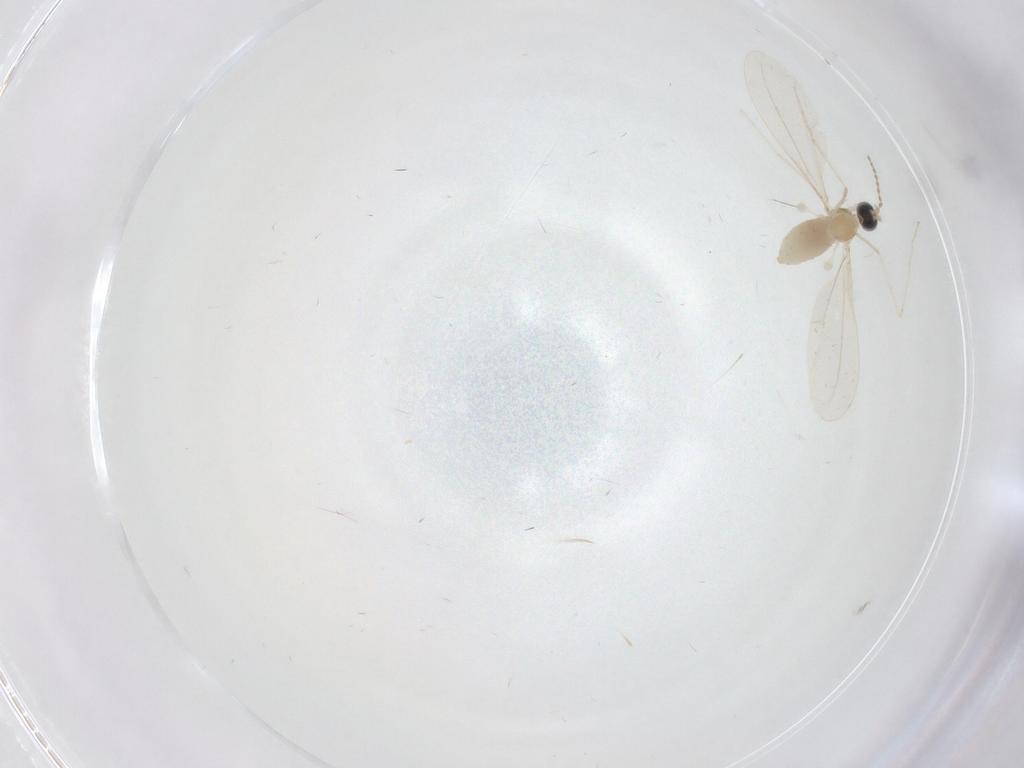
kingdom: Animalia
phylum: Arthropoda
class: Insecta
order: Diptera
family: Cecidomyiidae
